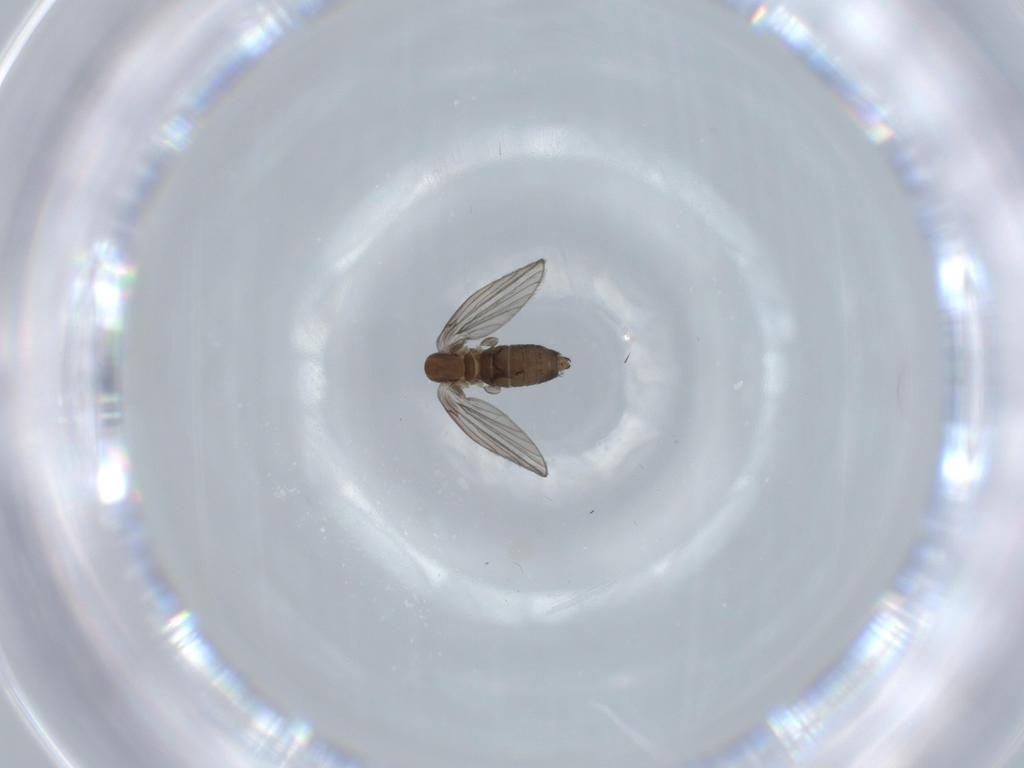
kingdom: Animalia
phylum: Arthropoda
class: Insecta
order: Diptera
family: Psychodidae
